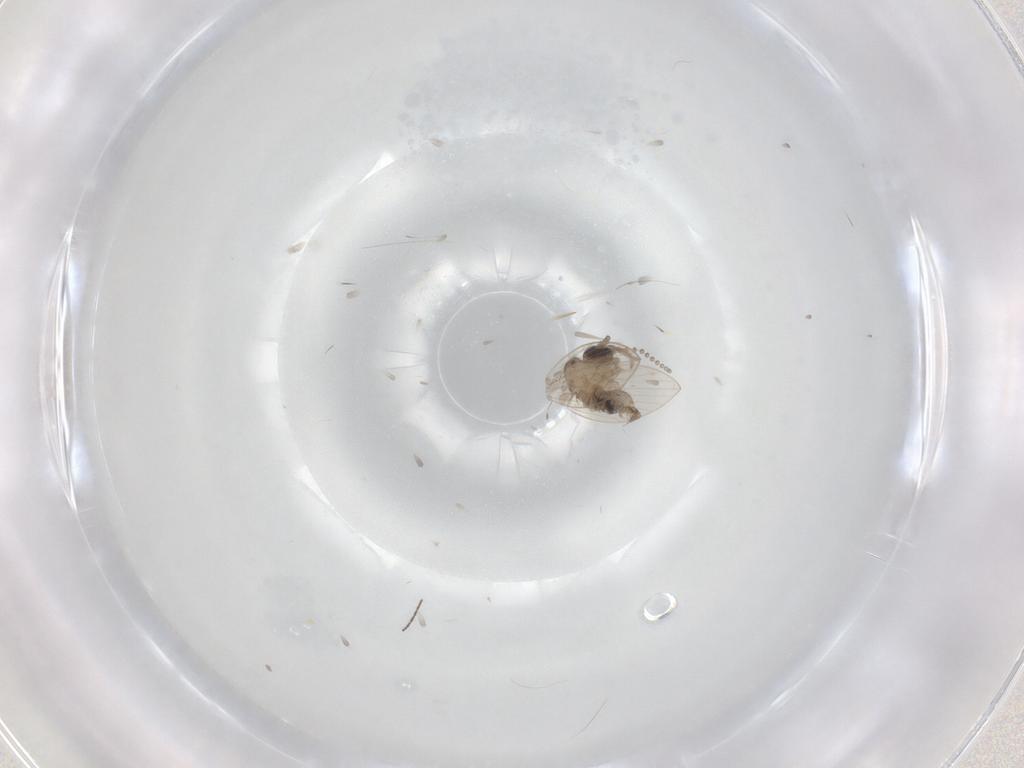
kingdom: Animalia
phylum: Arthropoda
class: Insecta
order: Diptera
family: Psychodidae
